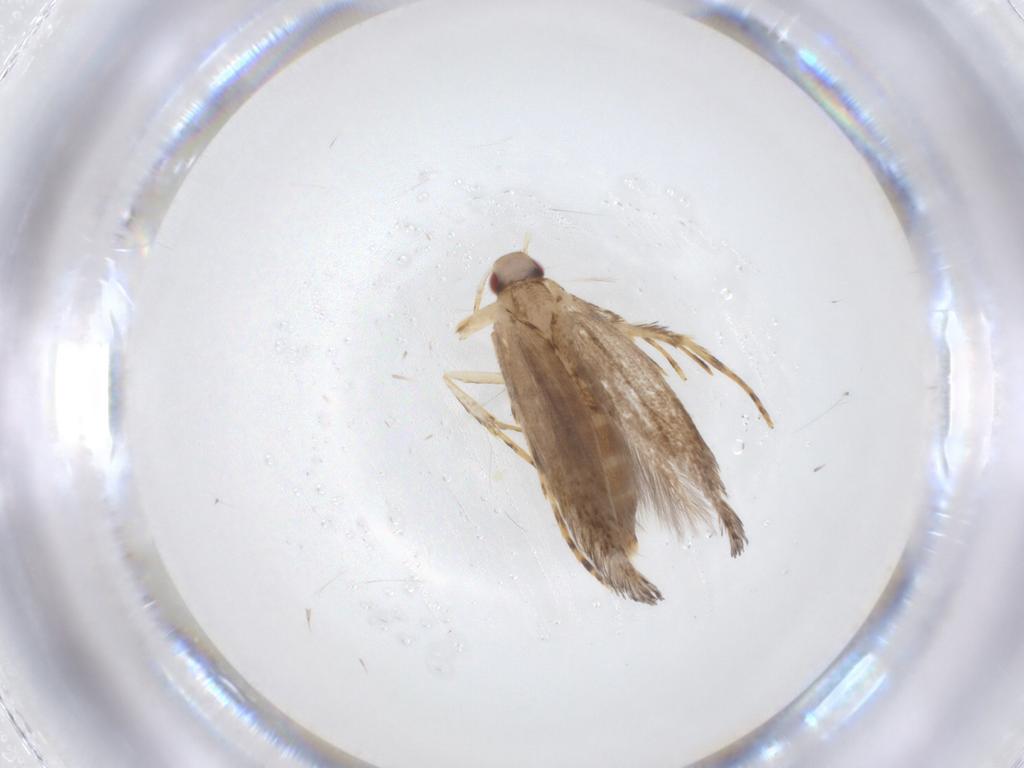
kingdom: Animalia
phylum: Arthropoda
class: Insecta
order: Lepidoptera
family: Cosmopterigidae
